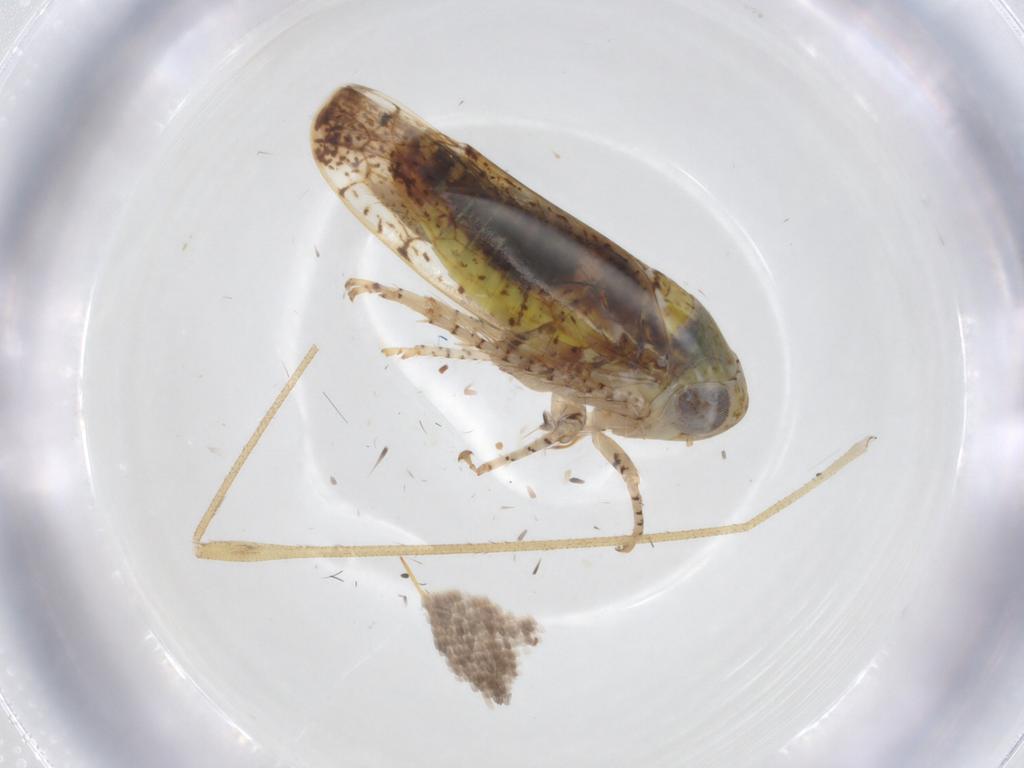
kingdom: Animalia
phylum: Arthropoda
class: Insecta
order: Hemiptera
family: Cicadellidae
